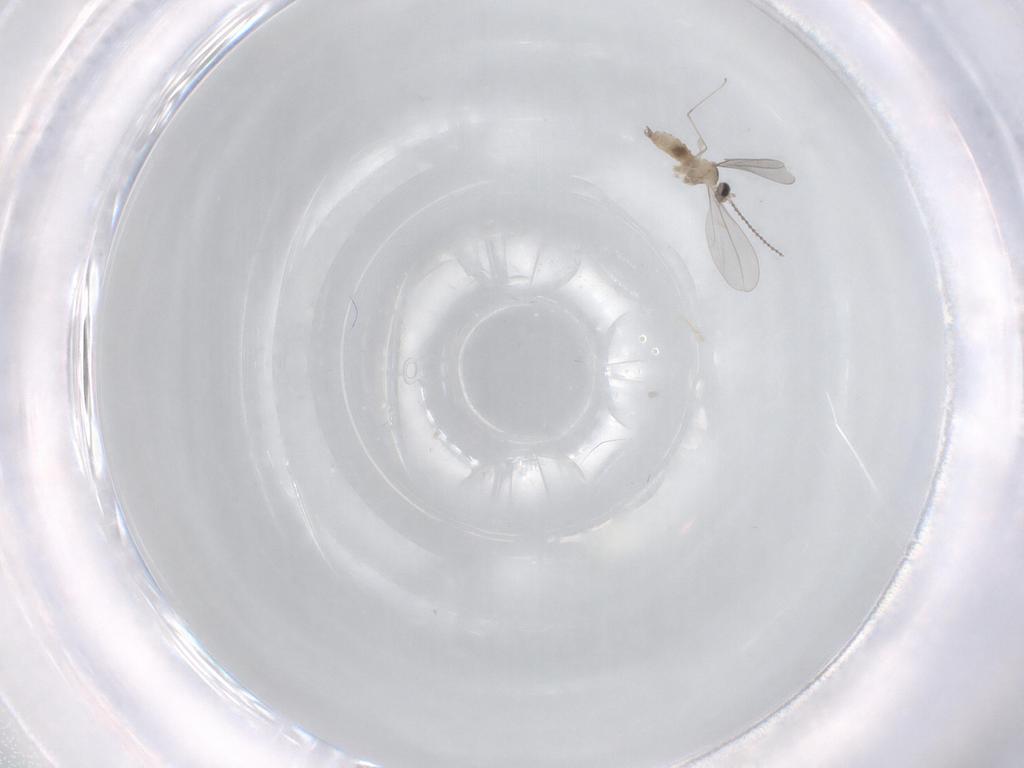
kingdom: Animalia
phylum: Arthropoda
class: Insecta
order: Diptera
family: Cecidomyiidae
